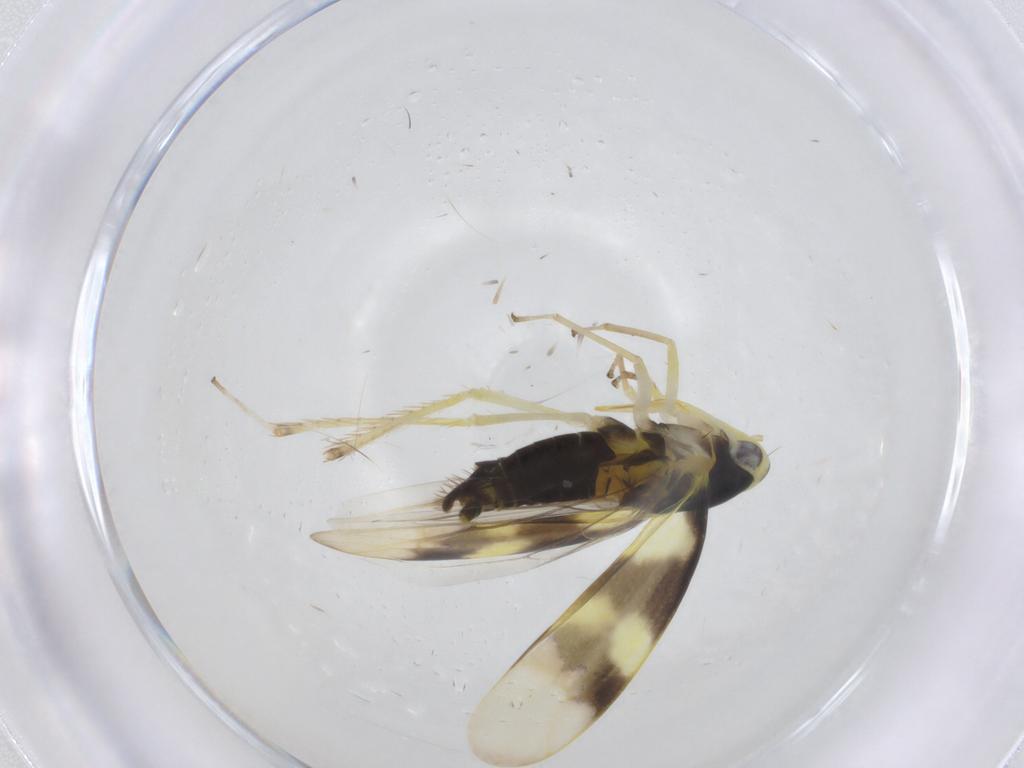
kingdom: Animalia
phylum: Arthropoda
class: Insecta
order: Hemiptera
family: Cicadellidae
